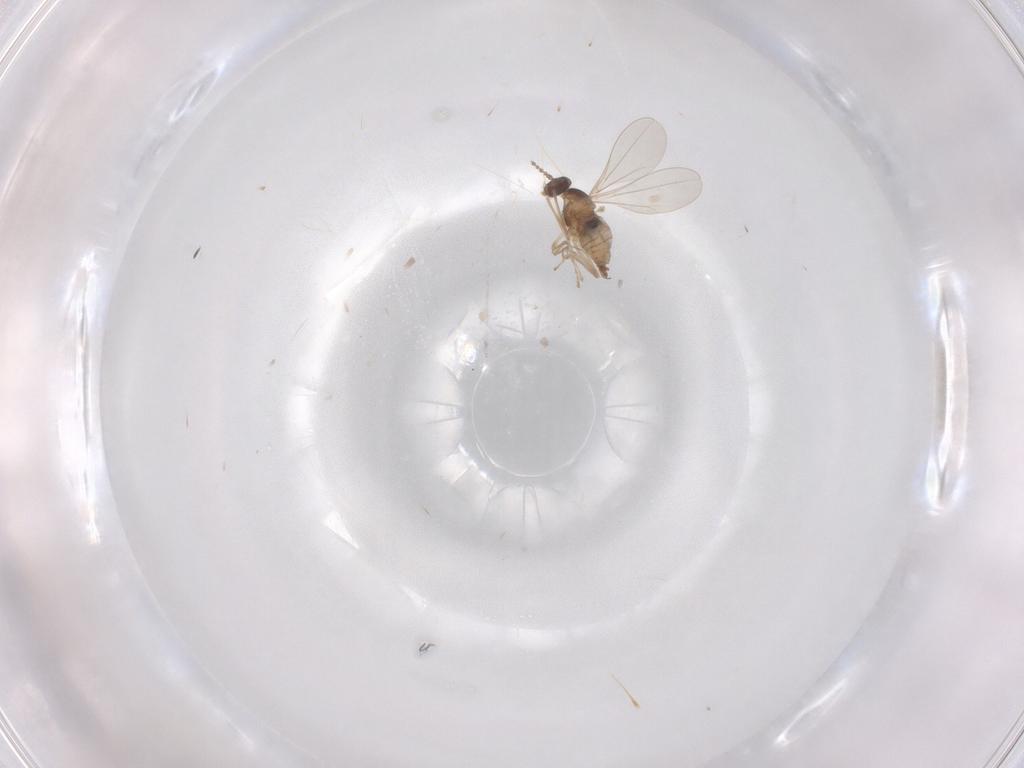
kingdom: Animalia
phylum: Arthropoda
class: Insecta
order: Diptera
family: Cecidomyiidae
